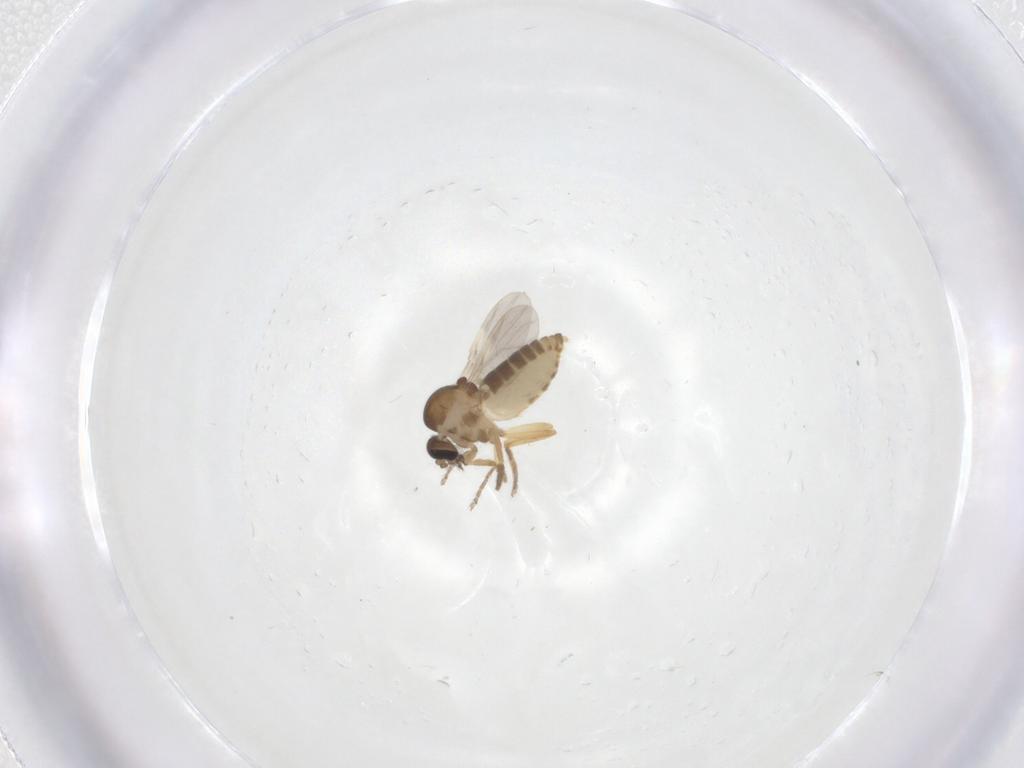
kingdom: Animalia
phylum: Arthropoda
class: Insecta
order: Diptera
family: Ceratopogonidae
